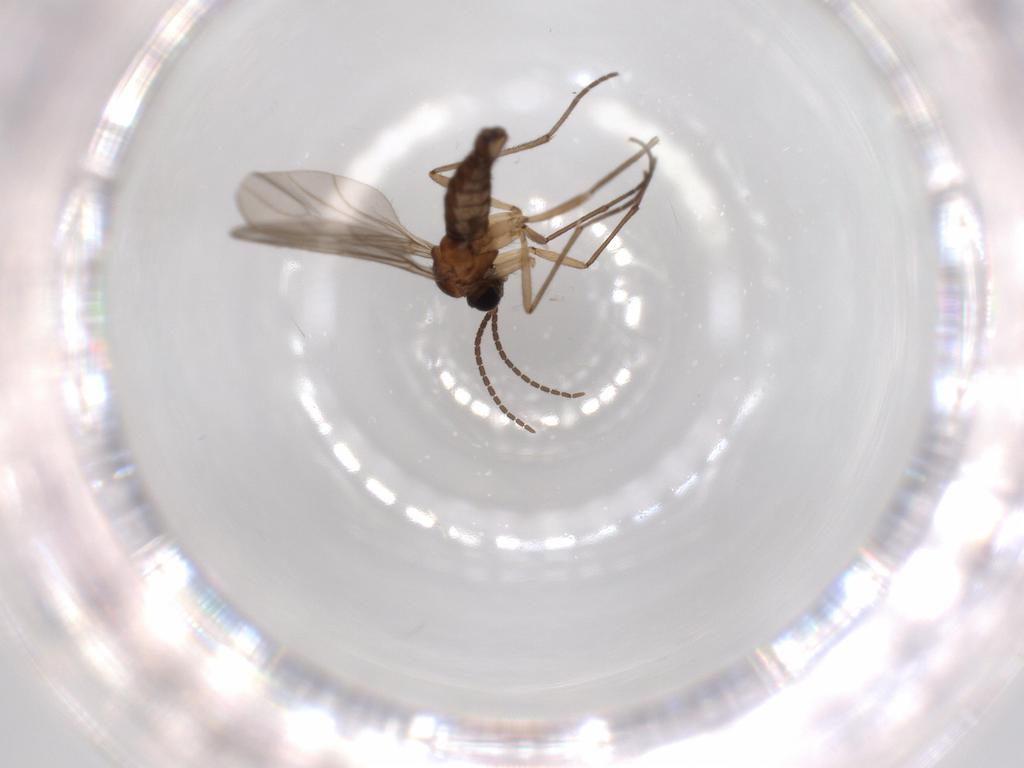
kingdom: Animalia
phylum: Arthropoda
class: Insecta
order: Diptera
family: Sciaridae
